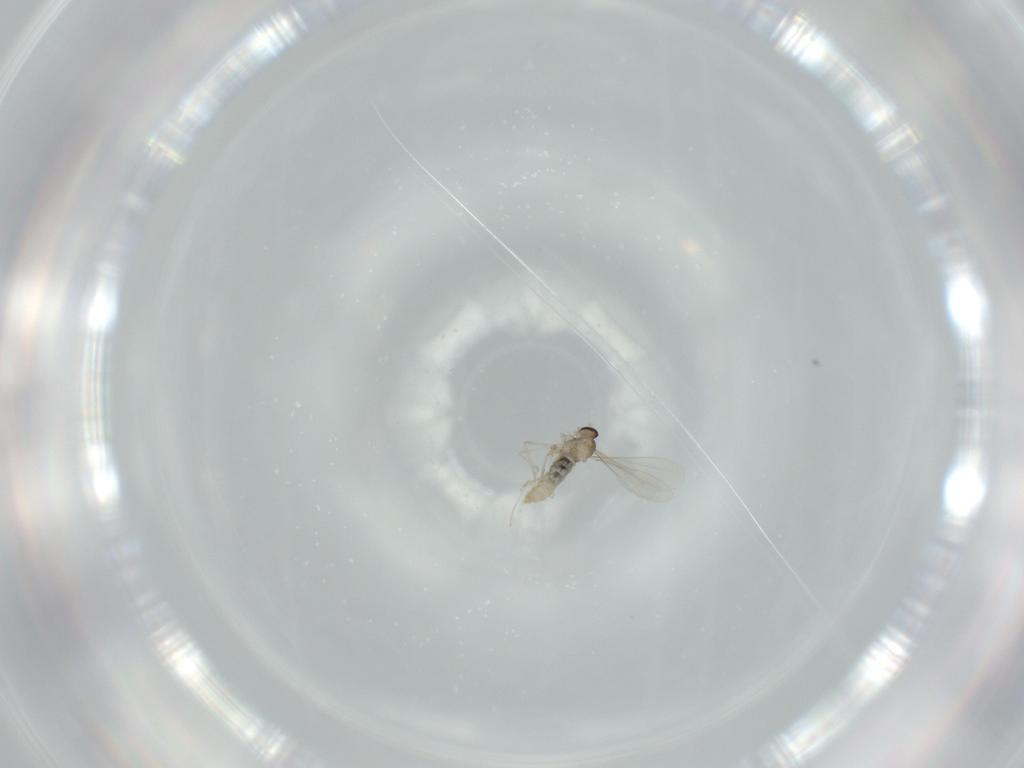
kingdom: Animalia
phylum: Arthropoda
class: Insecta
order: Diptera
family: Cecidomyiidae
